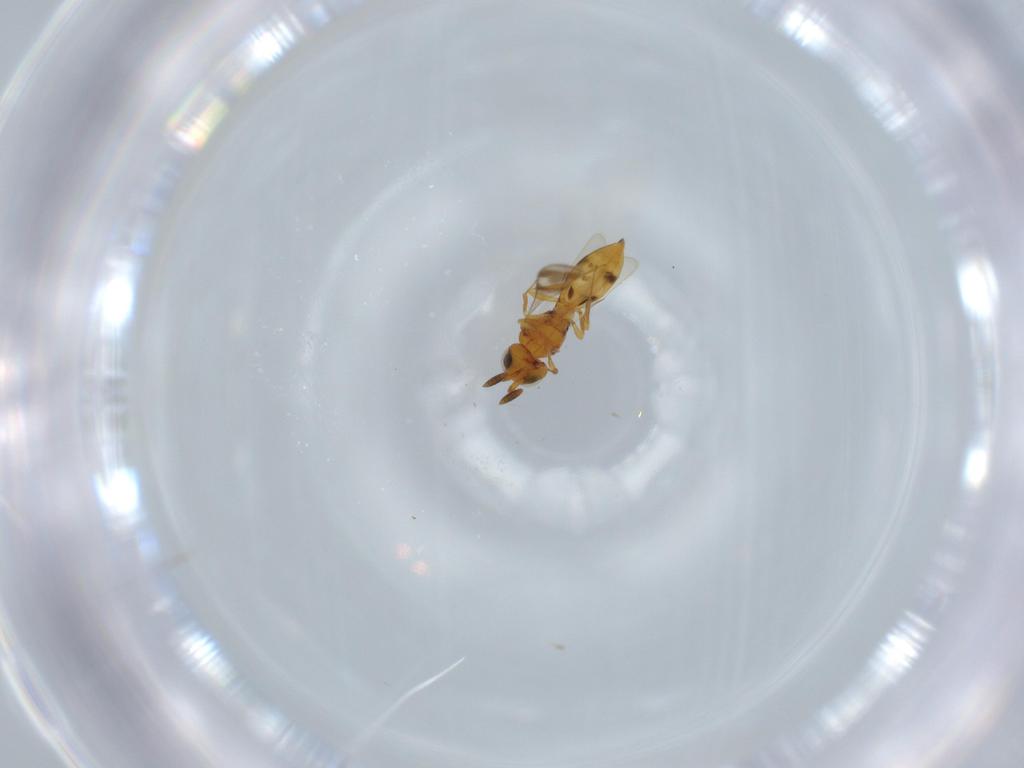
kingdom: Animalia
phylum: Arthropoda
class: Insecta
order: Hymenoptera
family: Scelionidae
